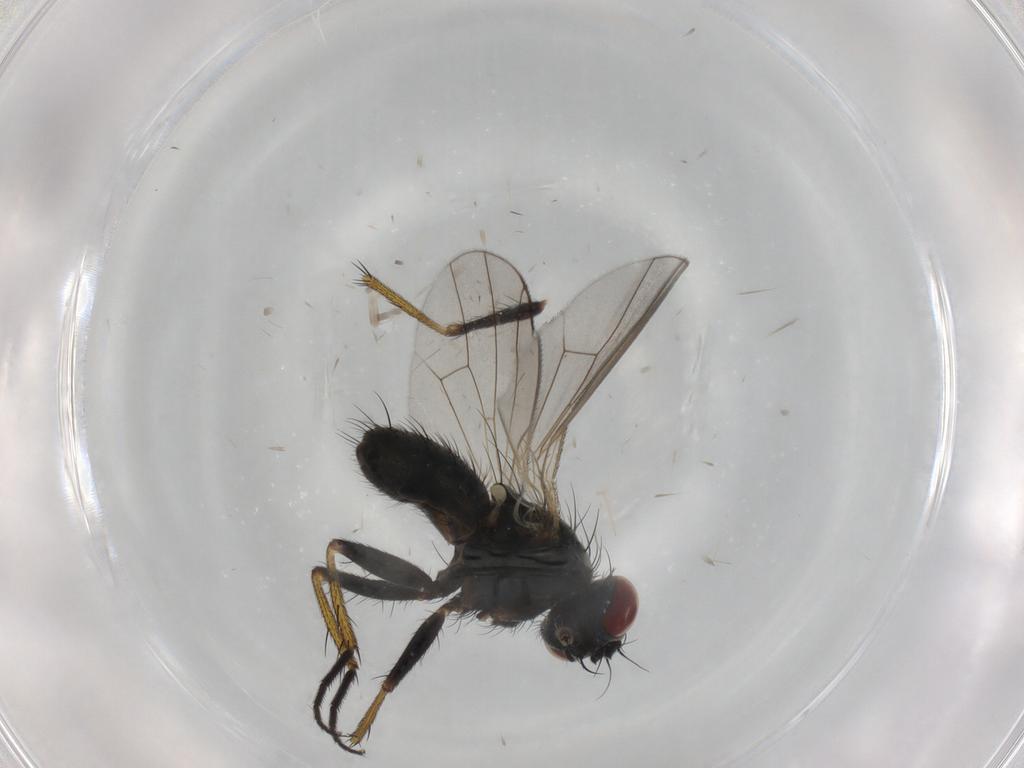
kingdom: Animalia
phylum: Arthropoda
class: Insecta
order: Diptera
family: Muscidae
